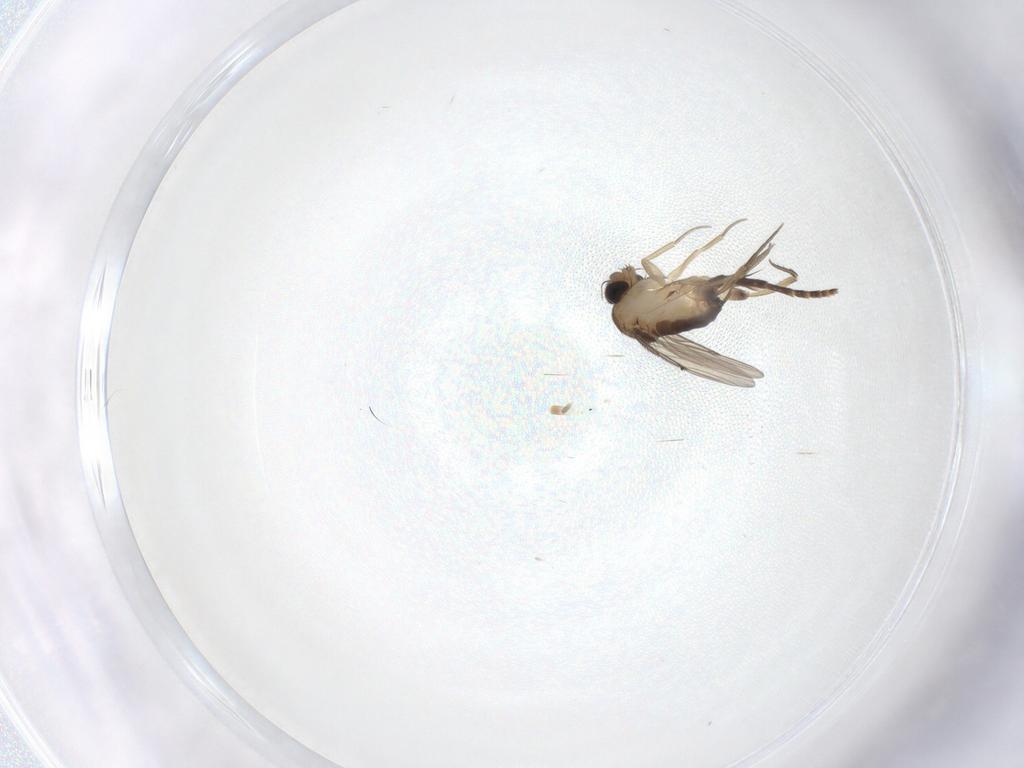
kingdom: Animalia
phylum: Arthropoda
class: Insecta
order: Diptera
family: Phoridae
